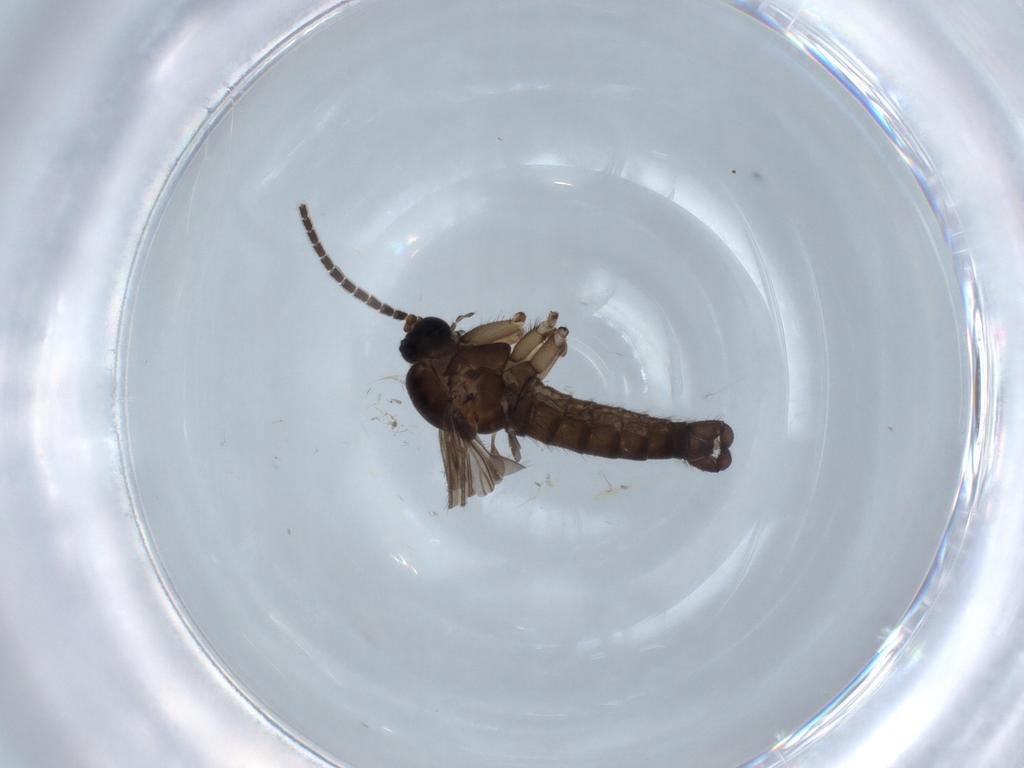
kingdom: Animalia
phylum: Arthropoda
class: Insecta
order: Diptera
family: Sciaridae
